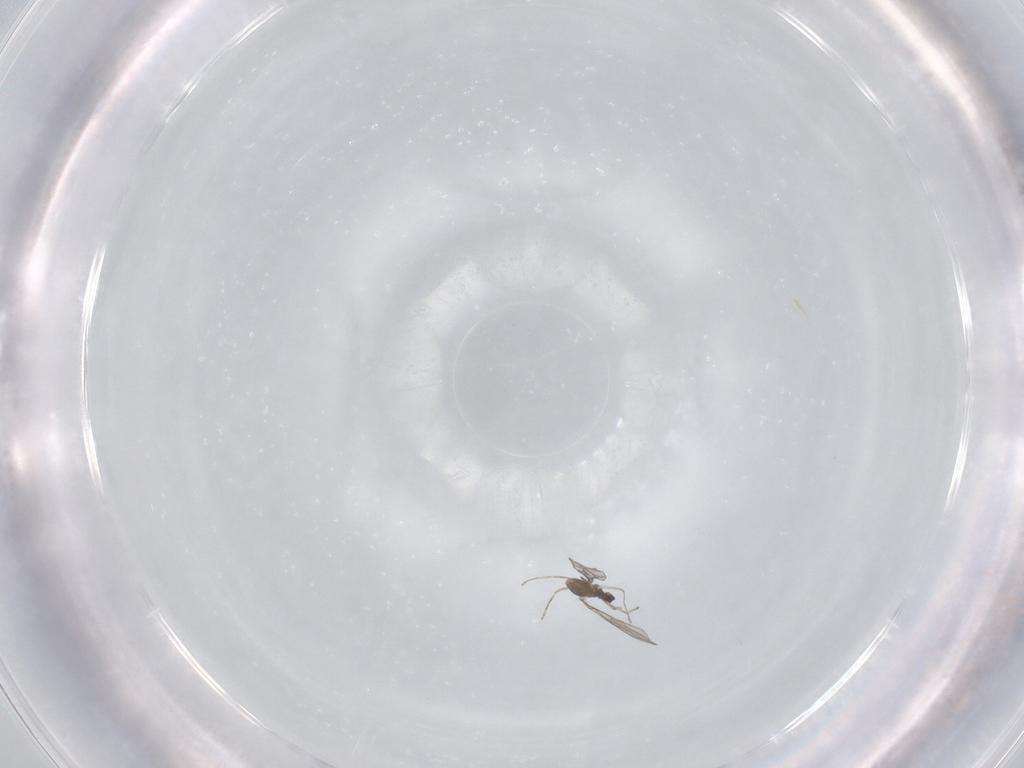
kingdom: Animalia
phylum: Arthropoda
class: Insecta
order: Diptera
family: Cecidomyiidae
